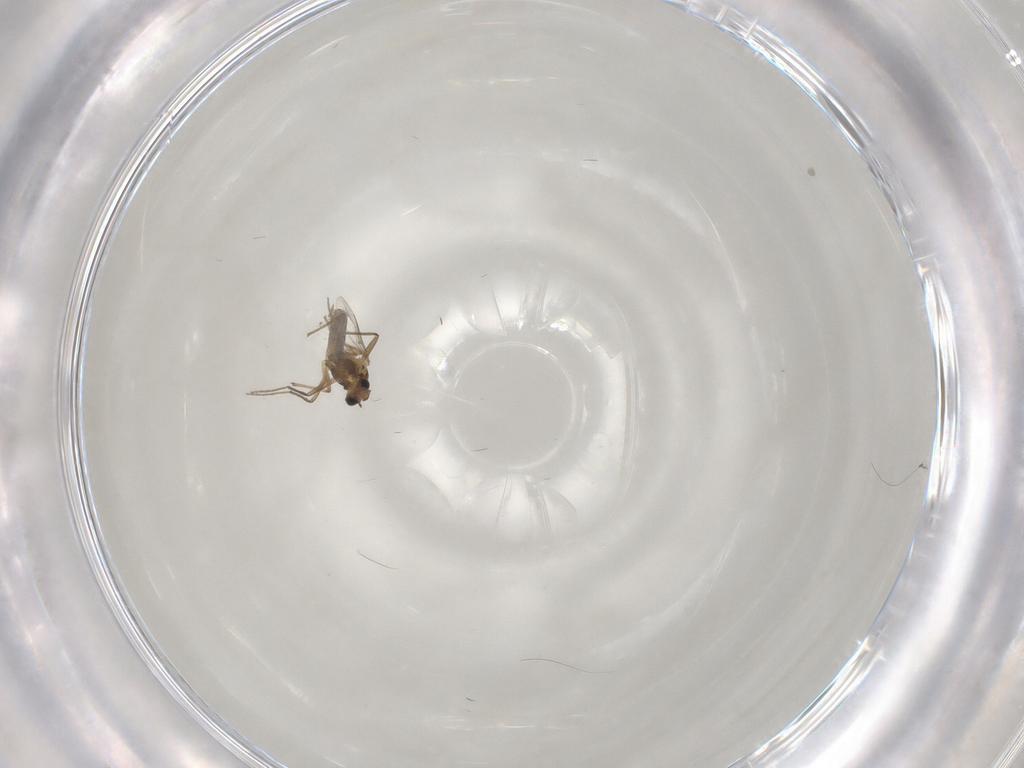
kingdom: Animalia
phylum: Arthropoda
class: Insecta
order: Diptera
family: Chironomidae
